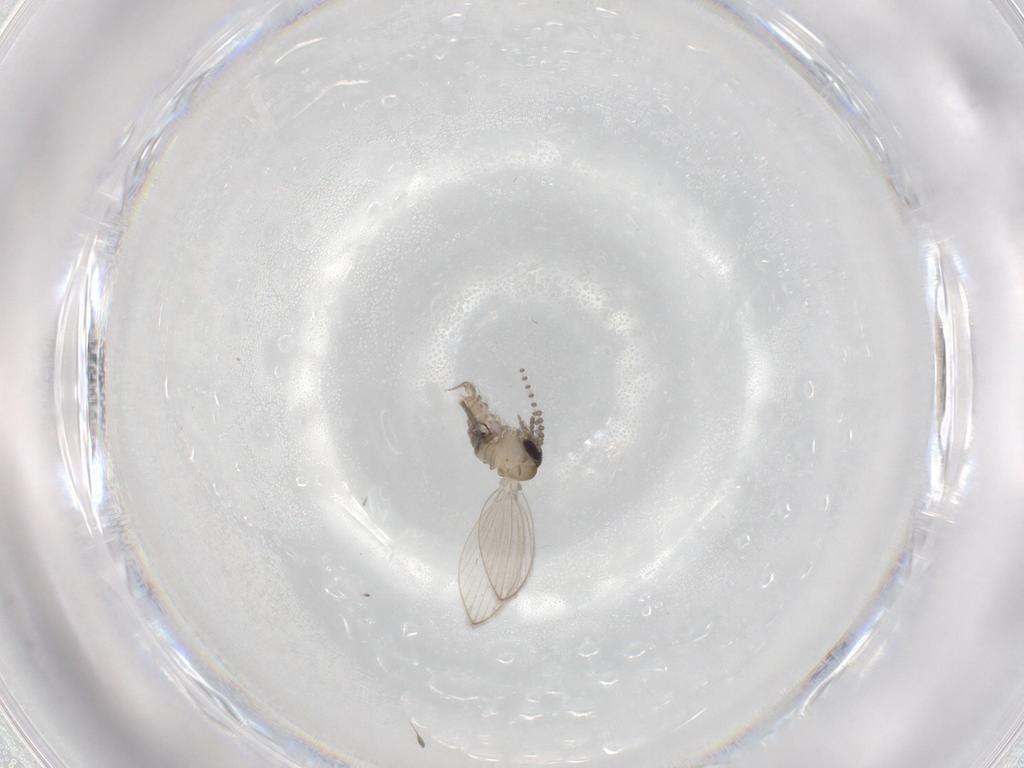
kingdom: Animalia
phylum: Arthropoda
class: Insecta
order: Diptera
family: Psychodidae
